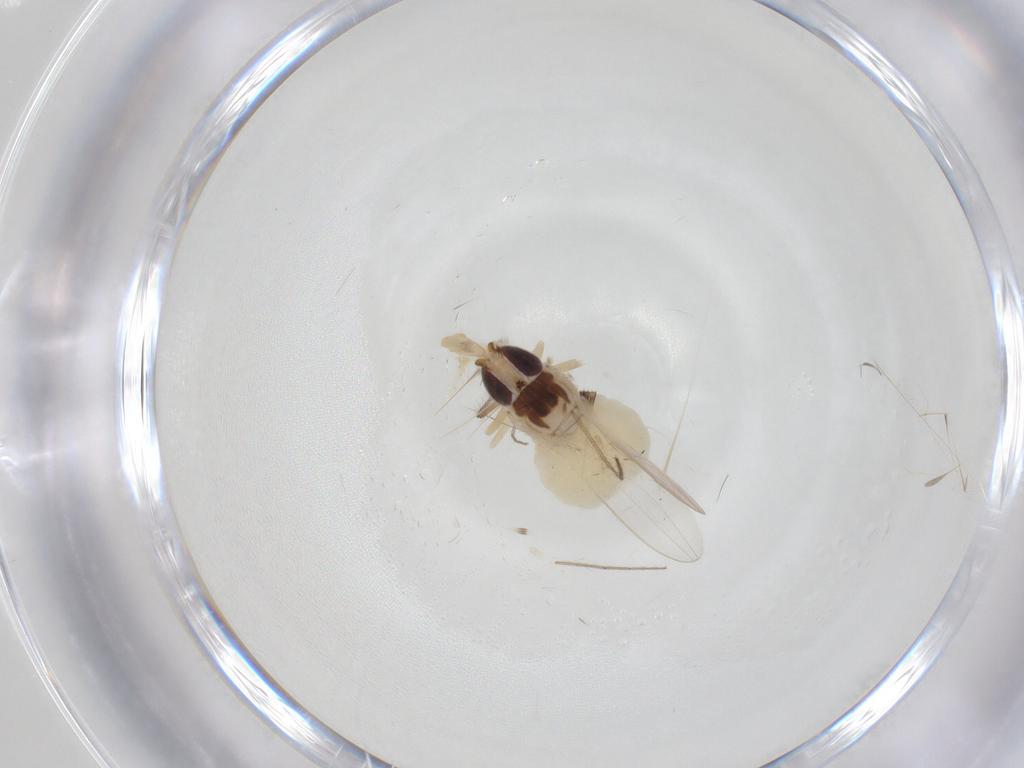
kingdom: Animalia
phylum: Arthropoda
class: Insecta
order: Diptera
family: Chloropidae
